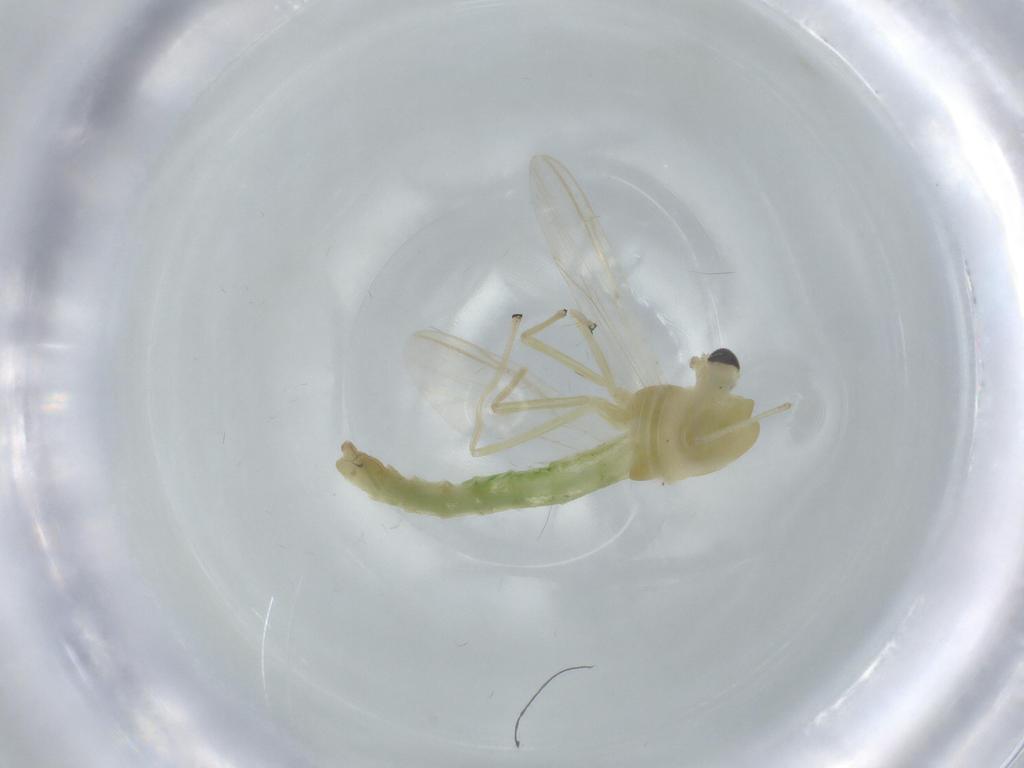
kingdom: Animalia
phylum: Arthropoda
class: Insecta
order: Diptera
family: Chironomidae
